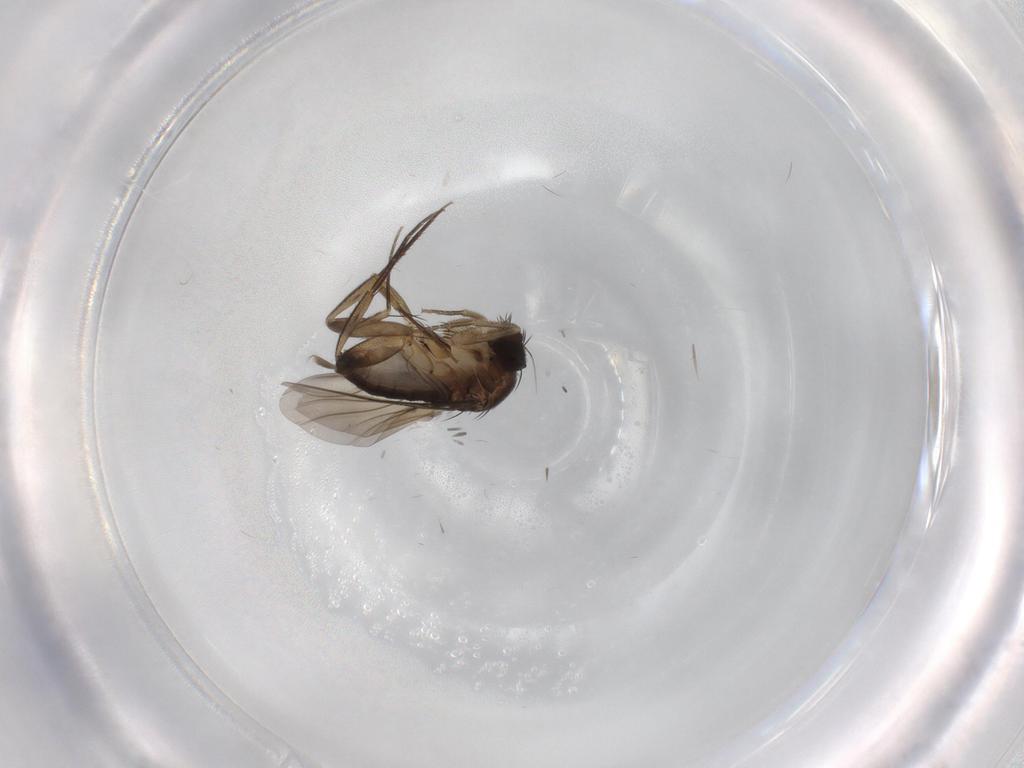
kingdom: Animalia
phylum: Arthropoda
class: Insecta
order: Diptera
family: Phoridae
